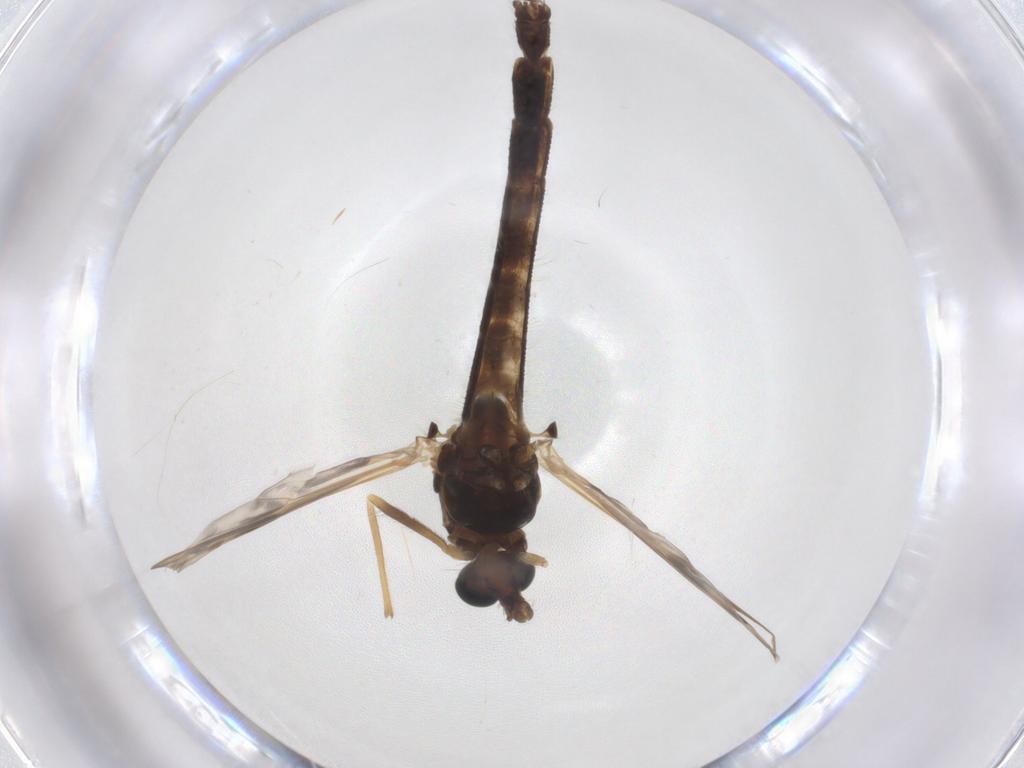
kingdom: Animalia
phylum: Arthropoda
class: Insecta
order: Diptera
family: Chironomidae
